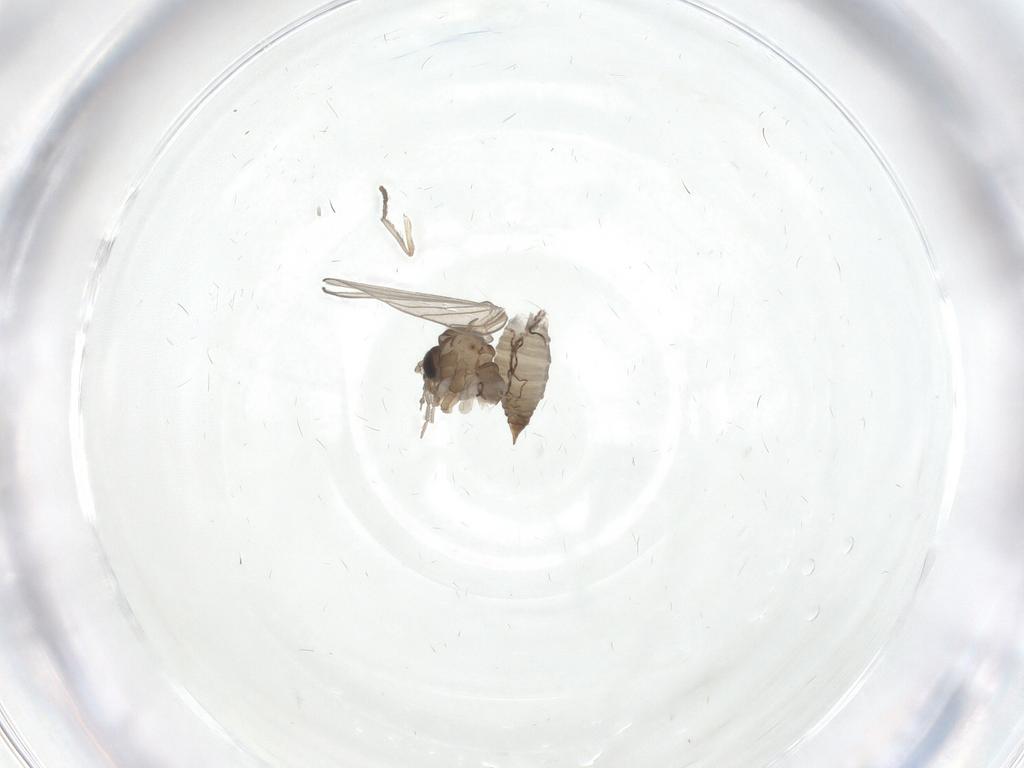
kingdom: Animalia
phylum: Arthropoda
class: Insecta
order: Diptera
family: Psychodidae
